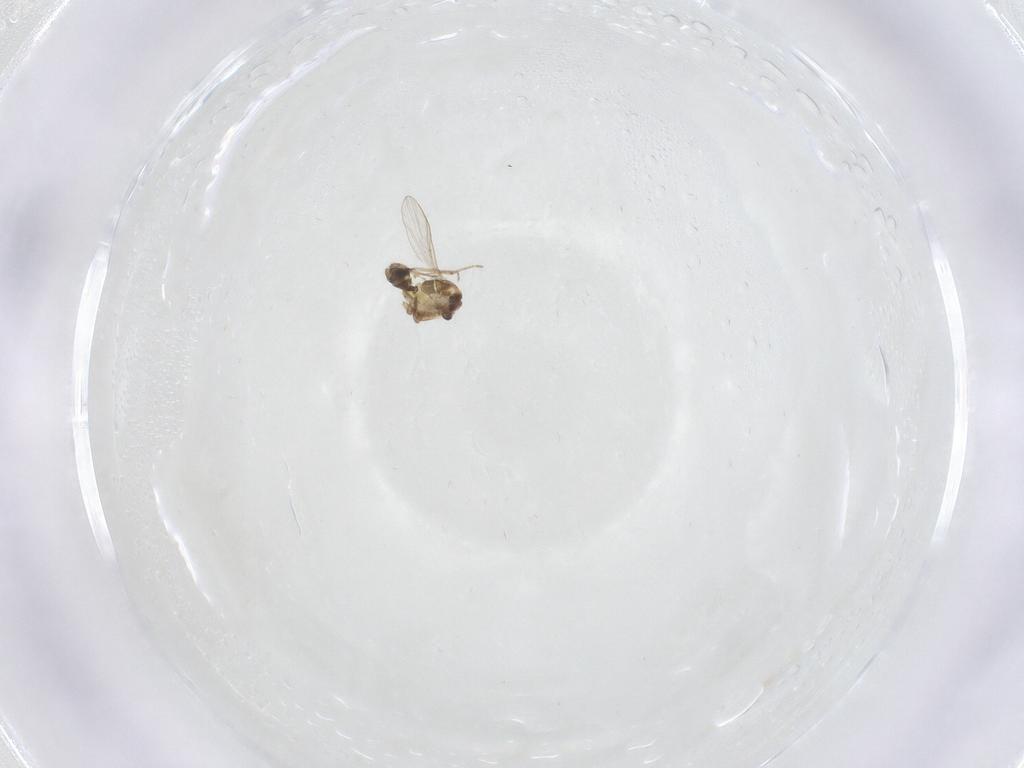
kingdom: Animalia
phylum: Arthropoda
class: Insecta
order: Diptera
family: Chironomidae
